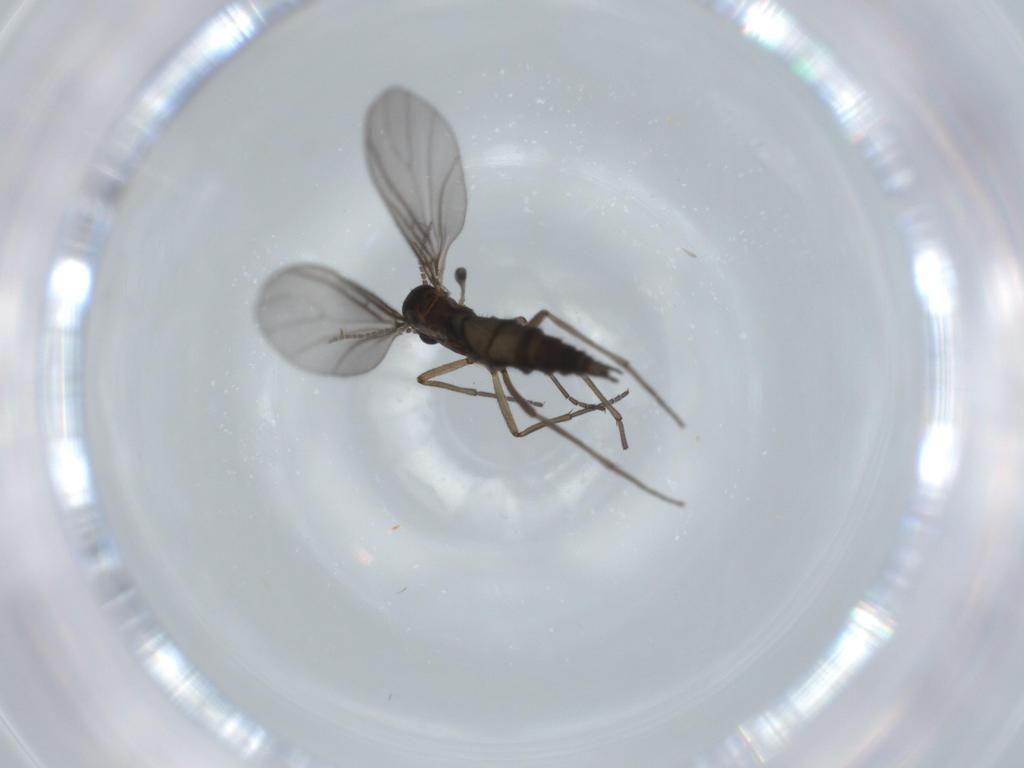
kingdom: Animalia
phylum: Arthropoda
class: Insecta
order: Diptera
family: Sciaridae
